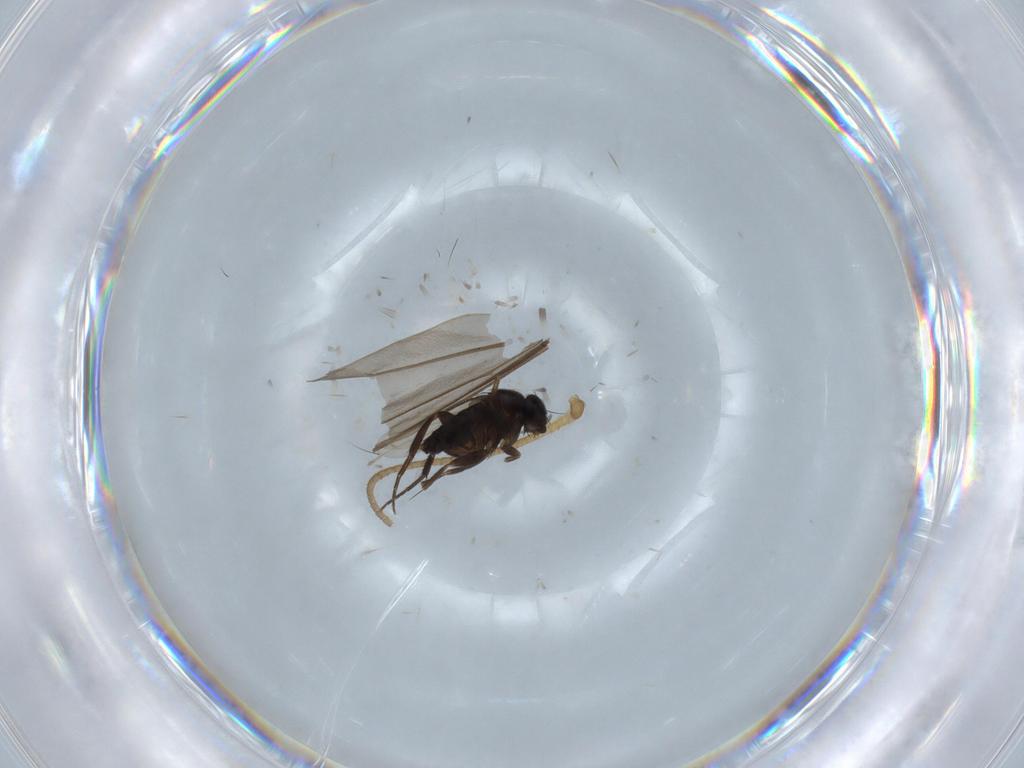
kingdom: Animalia
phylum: Arthropoda
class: Insecta
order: Diptera
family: Phoridae
